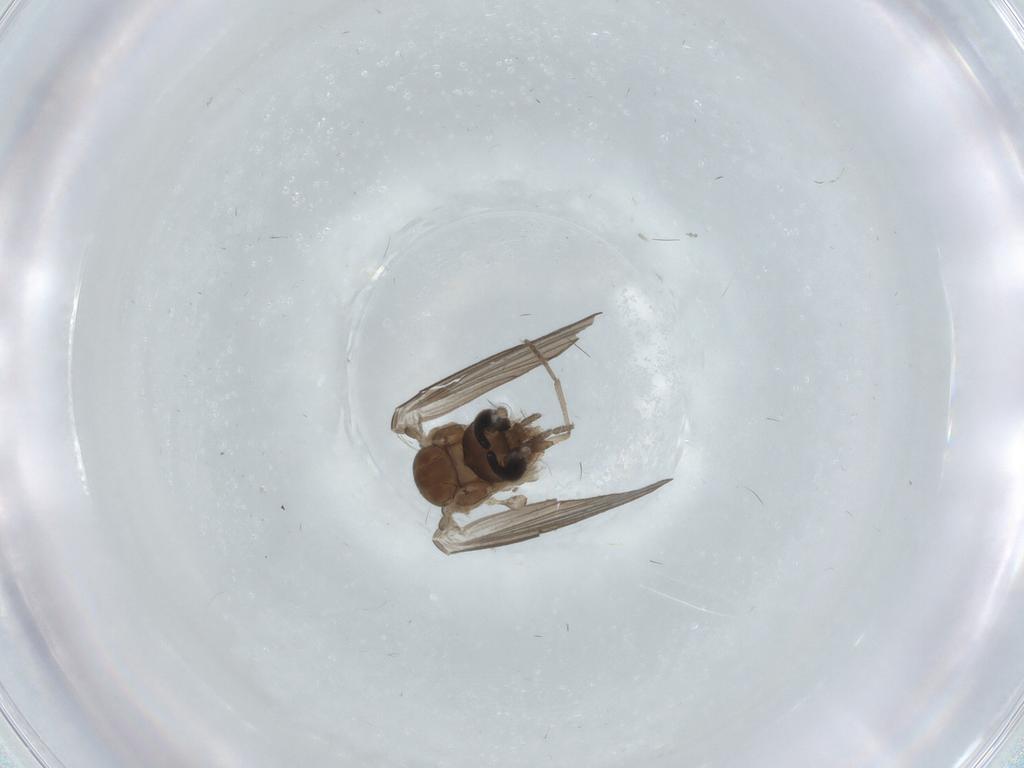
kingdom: Animalia
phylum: Arthropoda
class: Insecta
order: Diptera
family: Psychodidae
